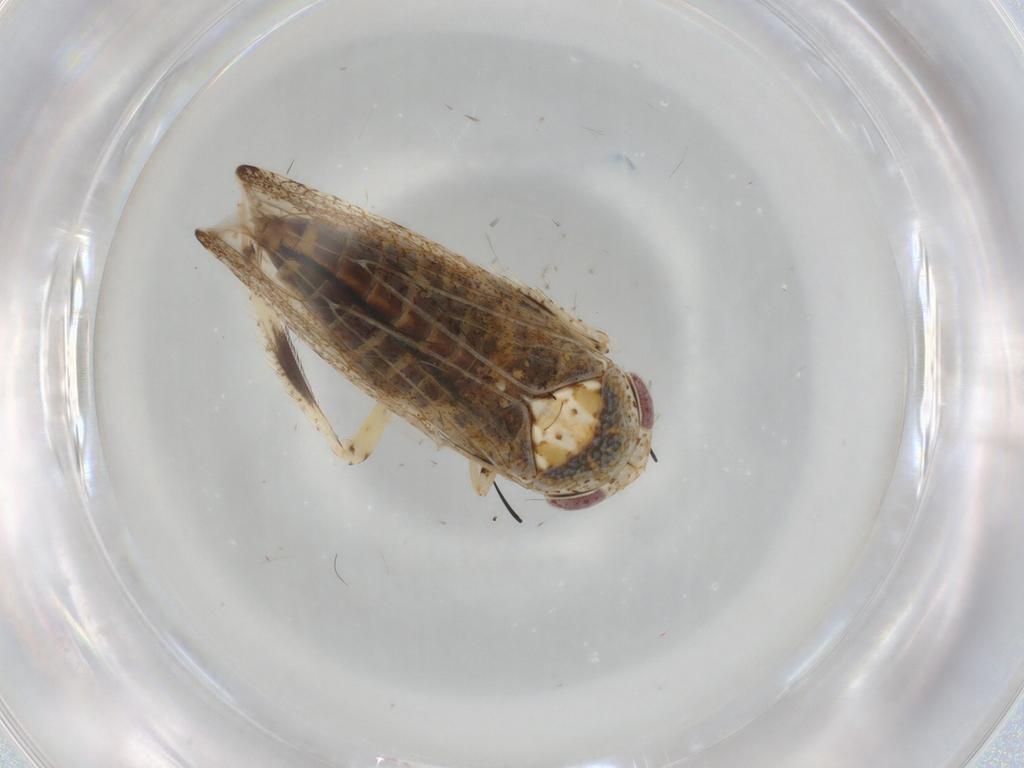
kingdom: Animalia
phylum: Arthropoda
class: Insecta
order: Hemiptera
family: Cicadellidae
